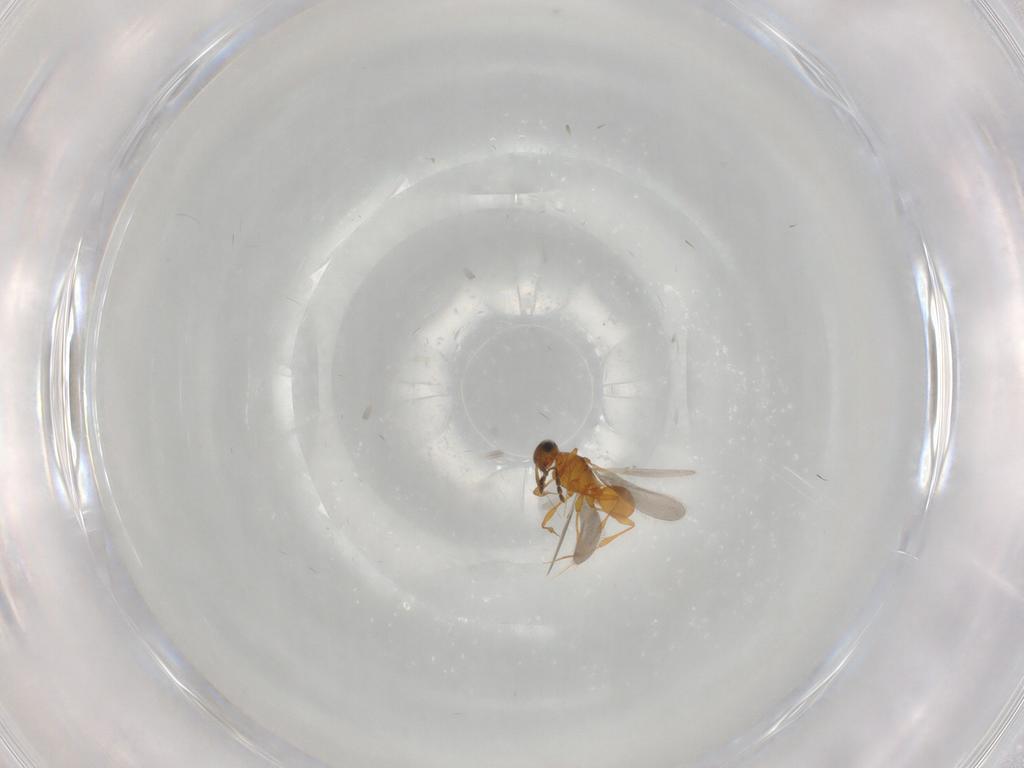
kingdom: Animalia
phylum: Arthropoda
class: Insecta
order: Hymenoptera
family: Platygastridae
